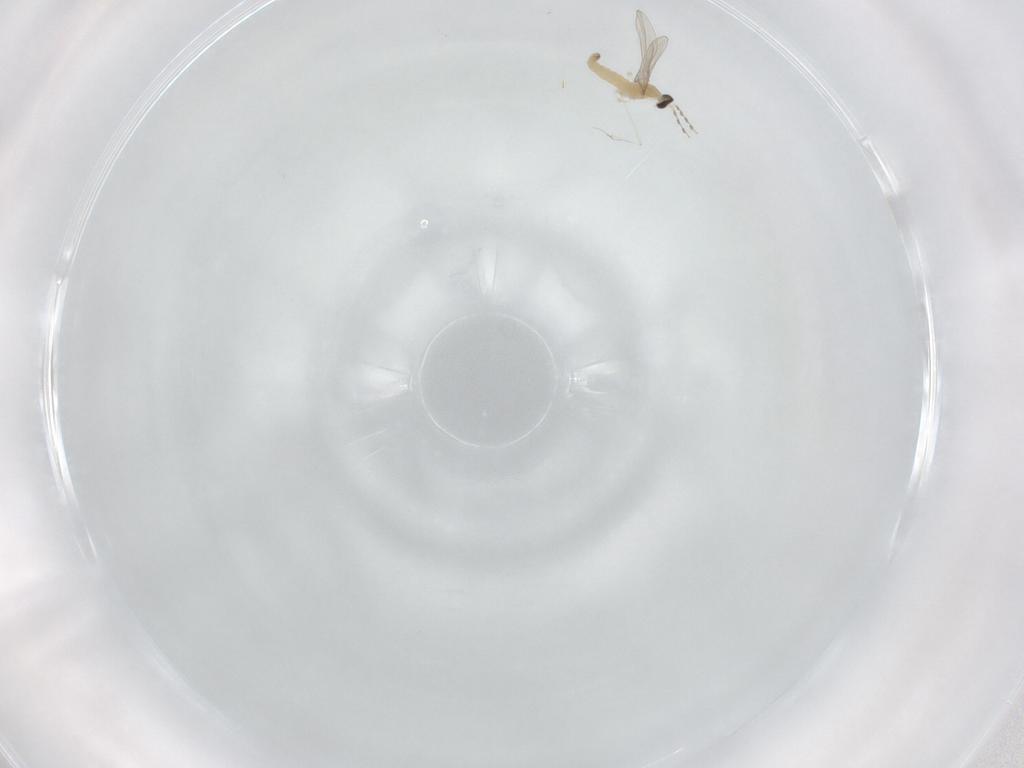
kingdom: Animalia
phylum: Arthropoda
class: Insecta
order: Diptera
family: Cecidomyiidae
